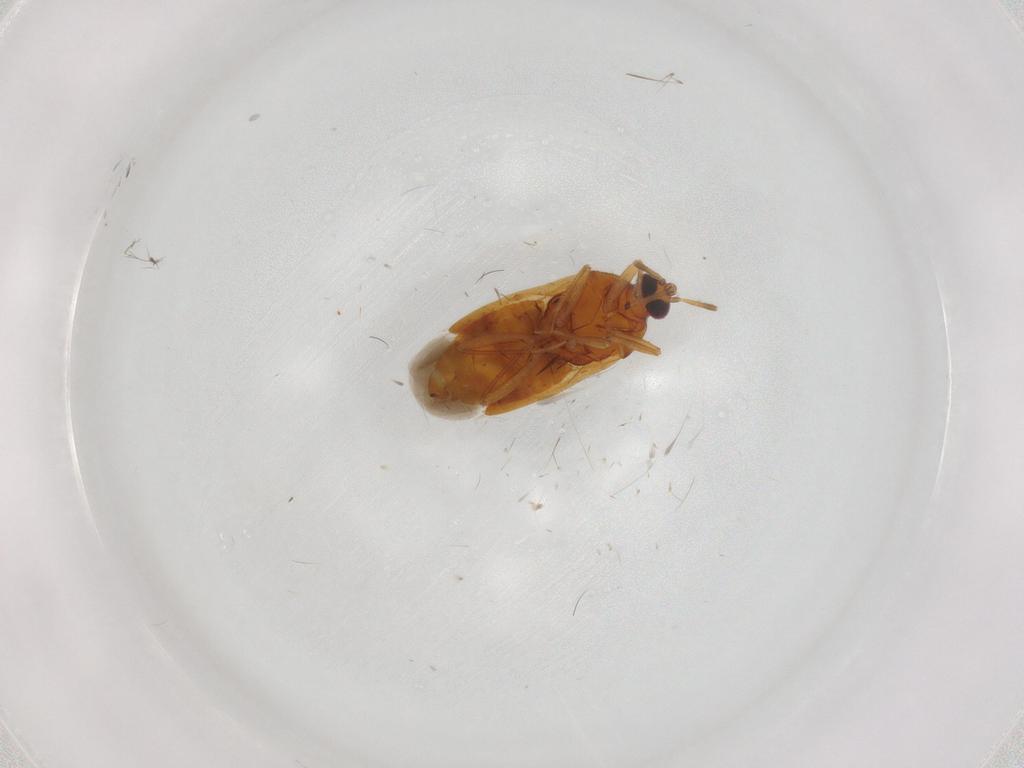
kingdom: Animalia
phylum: Arthropoda
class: Insecta
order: Hemiptera
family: Anthocoridae
